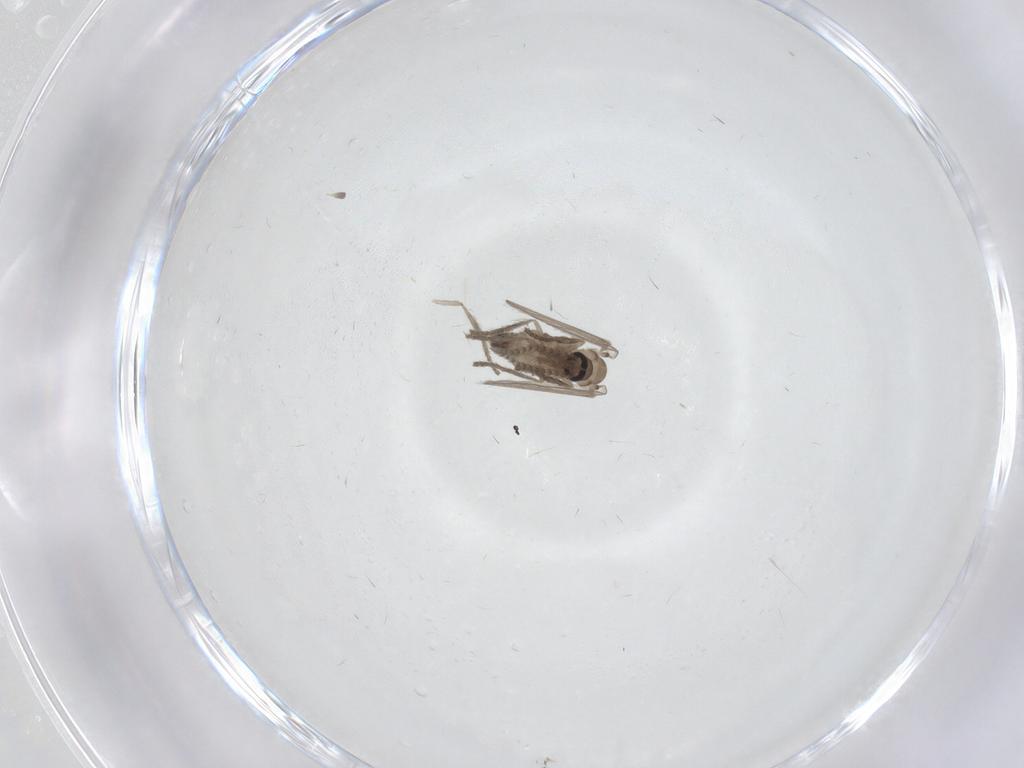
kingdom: Animalia
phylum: Arthropoda
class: Insecta
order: Diptera
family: Psychodidae
